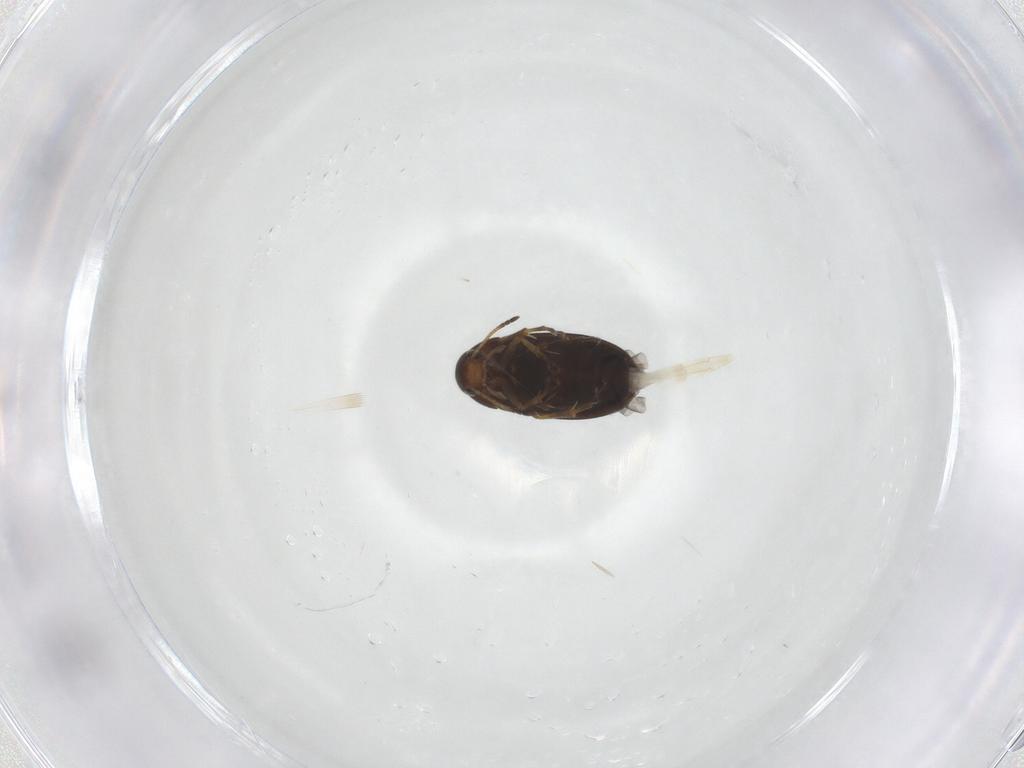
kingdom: Animalia
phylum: Arthropoda
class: Insecta
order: Coleoptera
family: Scraptiidae
